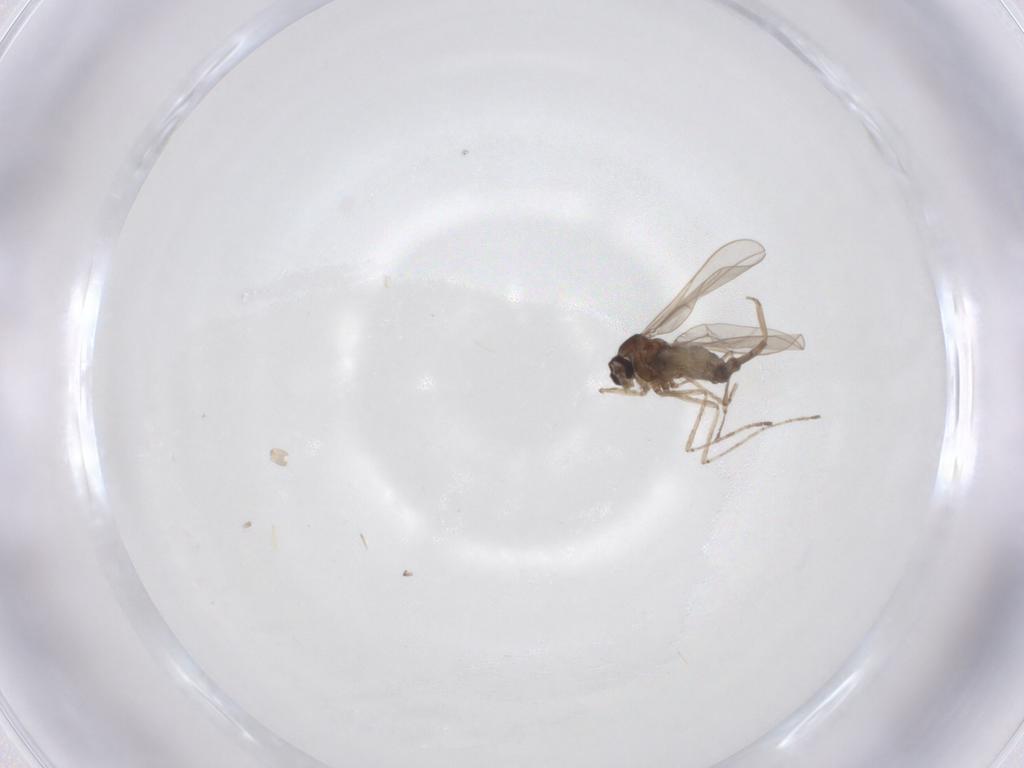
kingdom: Animalia
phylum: Arthropoda
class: Insecta
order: Diptera
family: Cecidomyiidae
